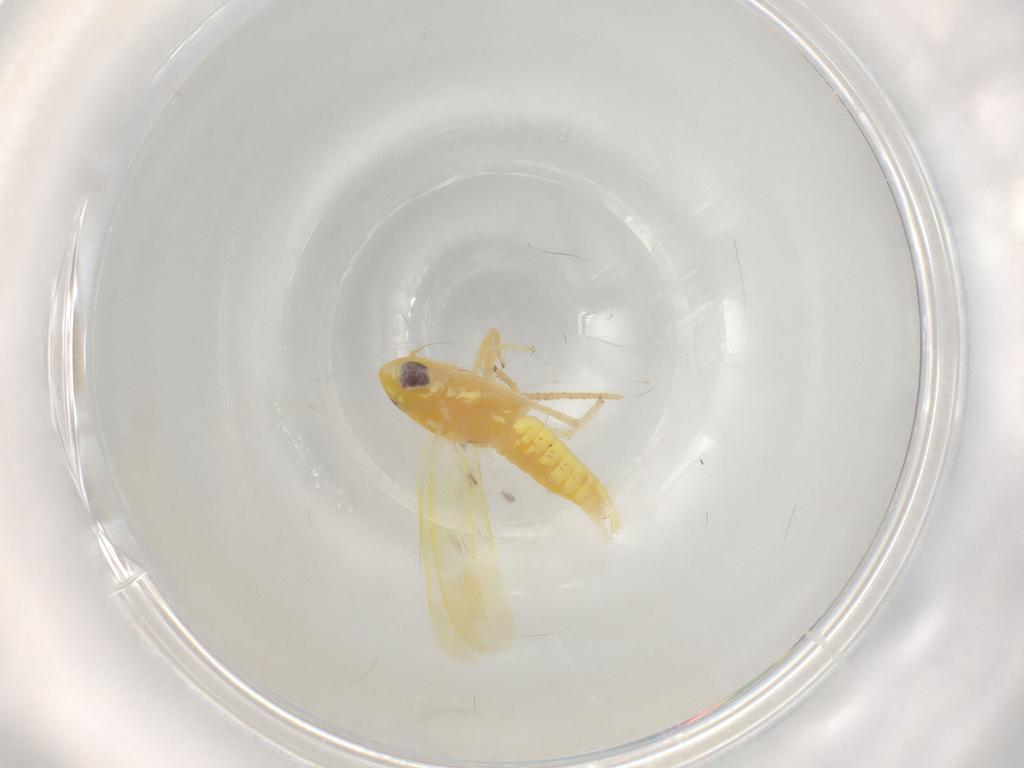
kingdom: Animalia
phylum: Arthropoda
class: Insecta
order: Hemiptera
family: Cicadellidae
